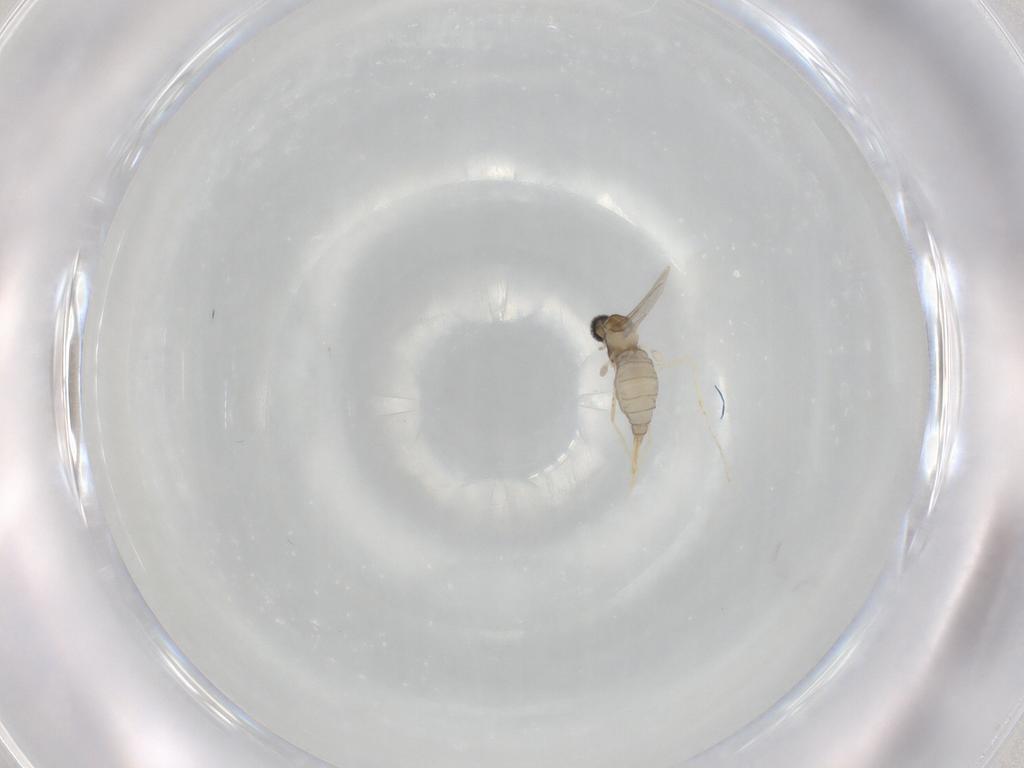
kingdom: Animalia
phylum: Arthropoda
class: Insecta
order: Diptera
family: Cecidomyiidae
